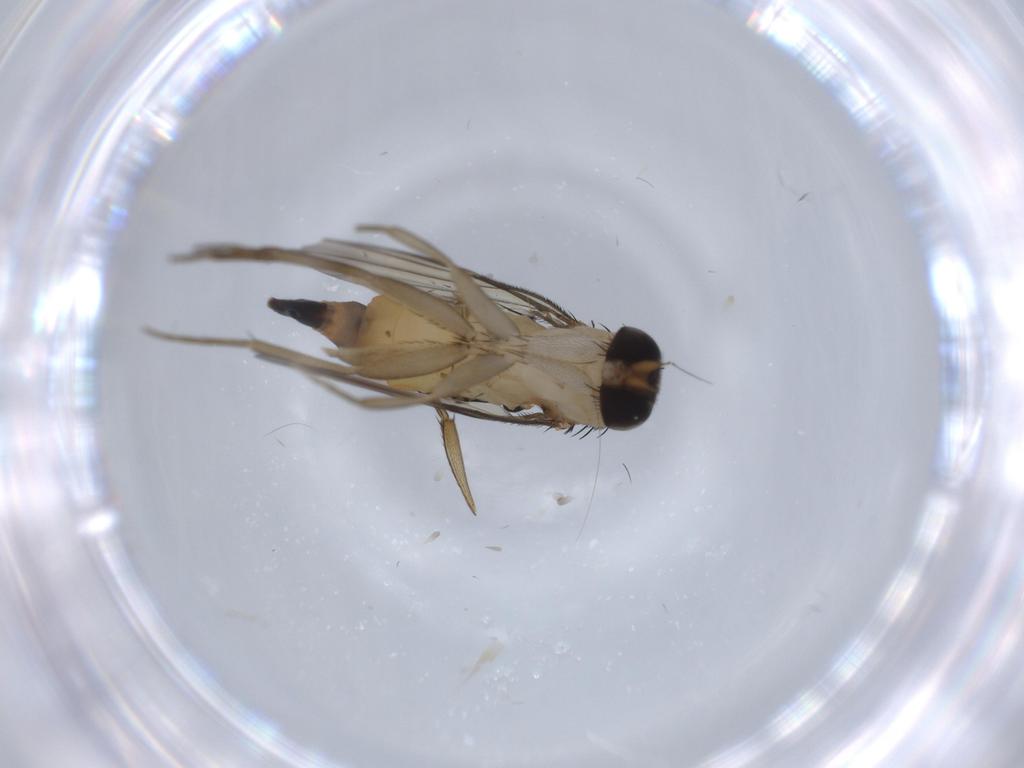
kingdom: Animalia
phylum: Arthropoda
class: Insecta
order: Diptera
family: Phoridae
